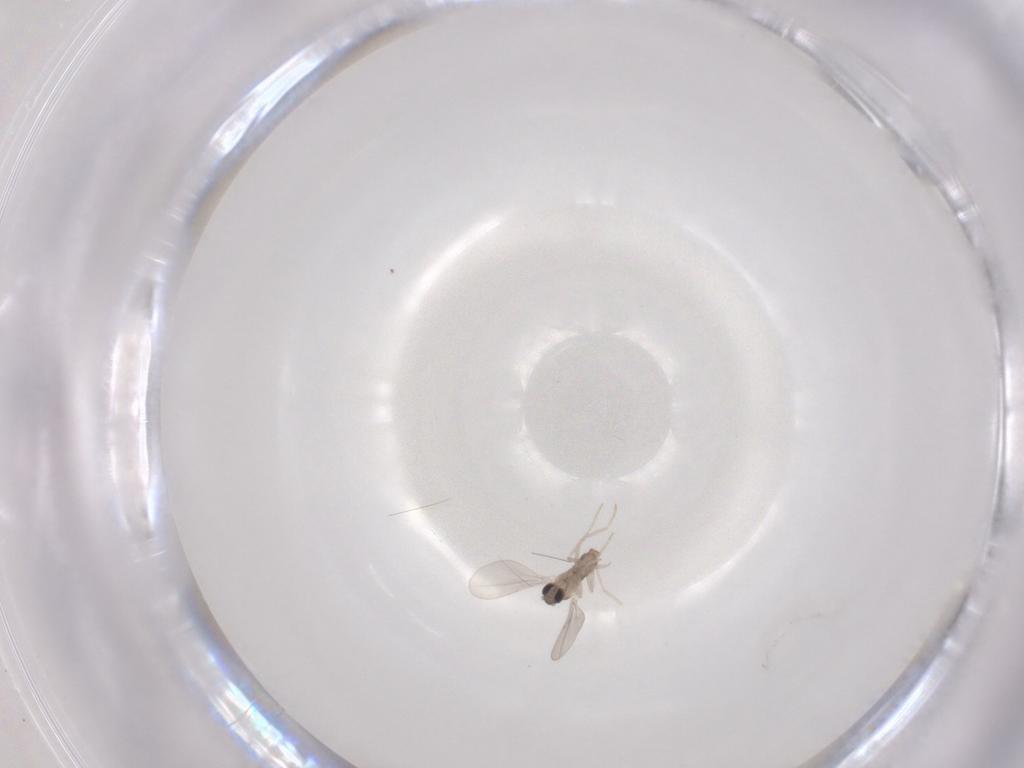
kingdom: Animalia
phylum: Arthropoda
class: Insecta
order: Diptera
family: Cecidomyiidae
